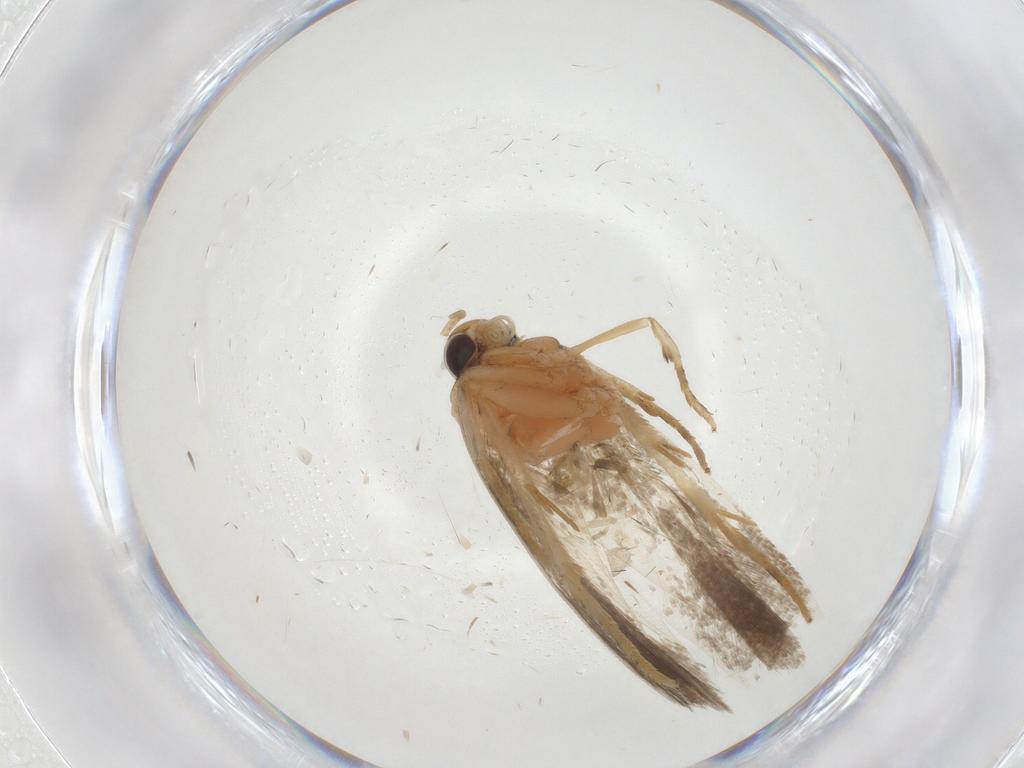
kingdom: Animalia
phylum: Arthropoda
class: Insecta
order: Lepidoptera
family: Gelechiidae
